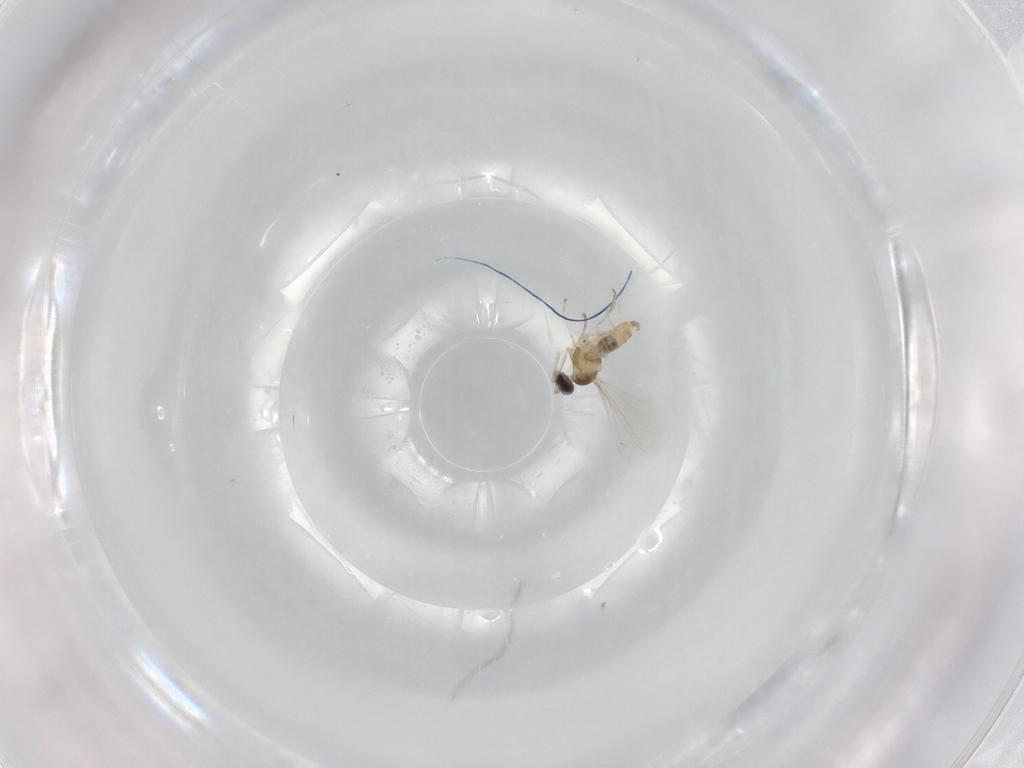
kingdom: Animalia
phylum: Arthropoda
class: Insecta
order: Diptera
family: Cecidomyiidae
